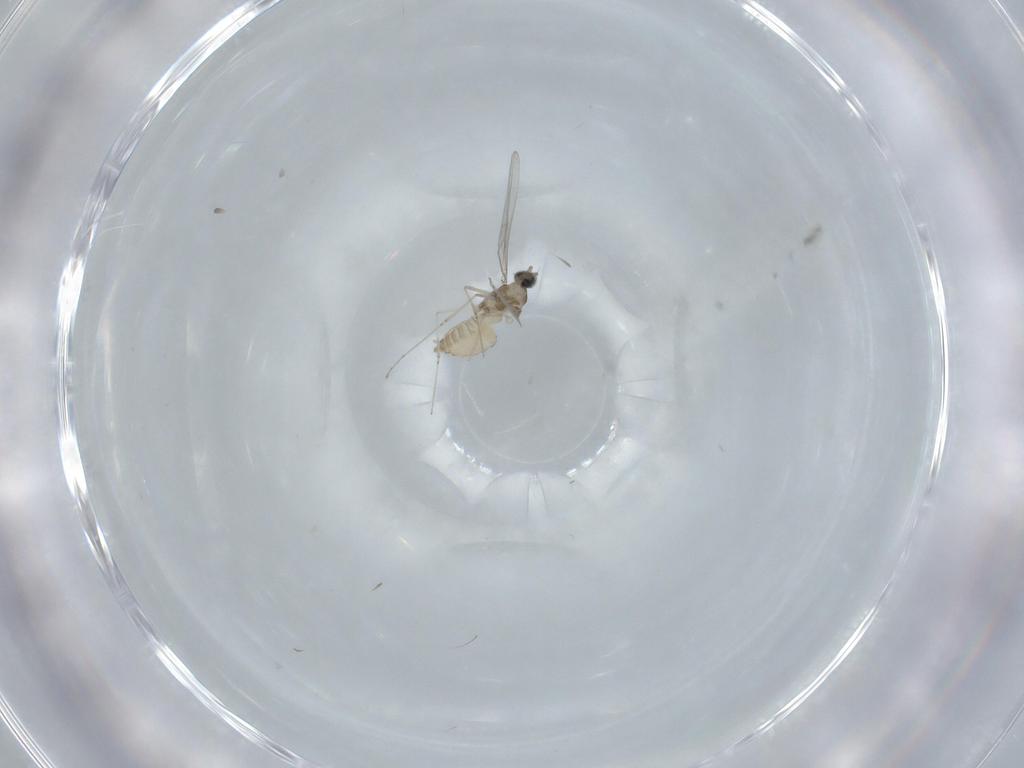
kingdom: Animalia
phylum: Arthropoda
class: Insecta
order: Diptera
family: Cecidomyiidae
